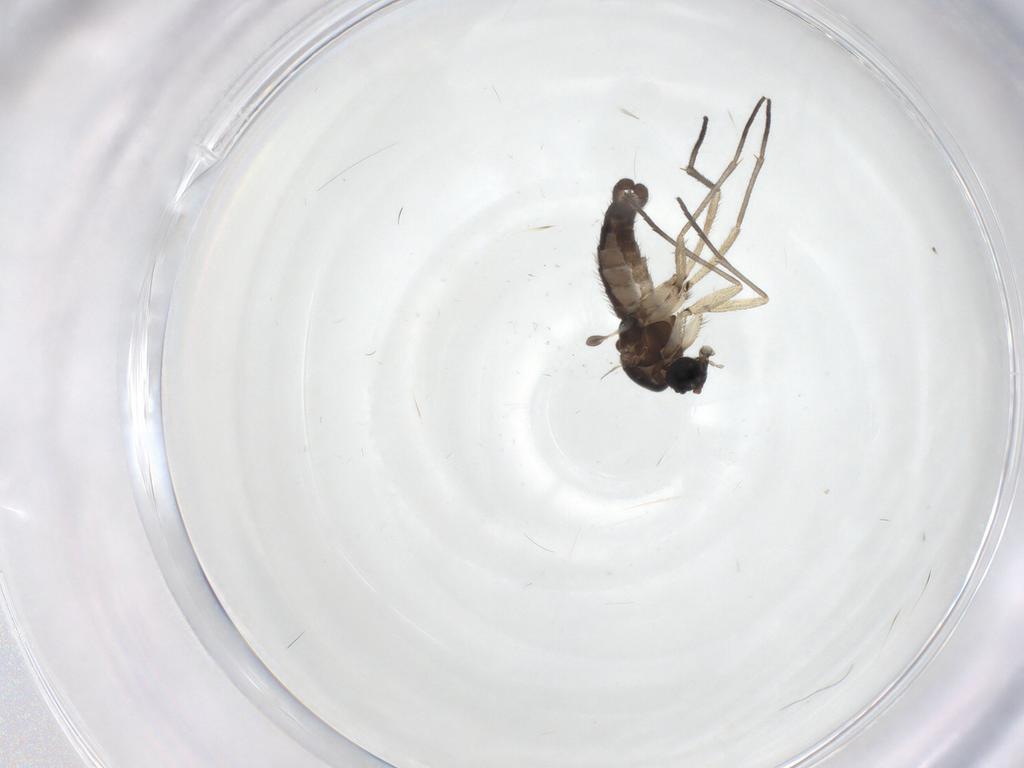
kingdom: Animalia
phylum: Arthropoda
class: Insecta
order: Diptera
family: Sciaridae
